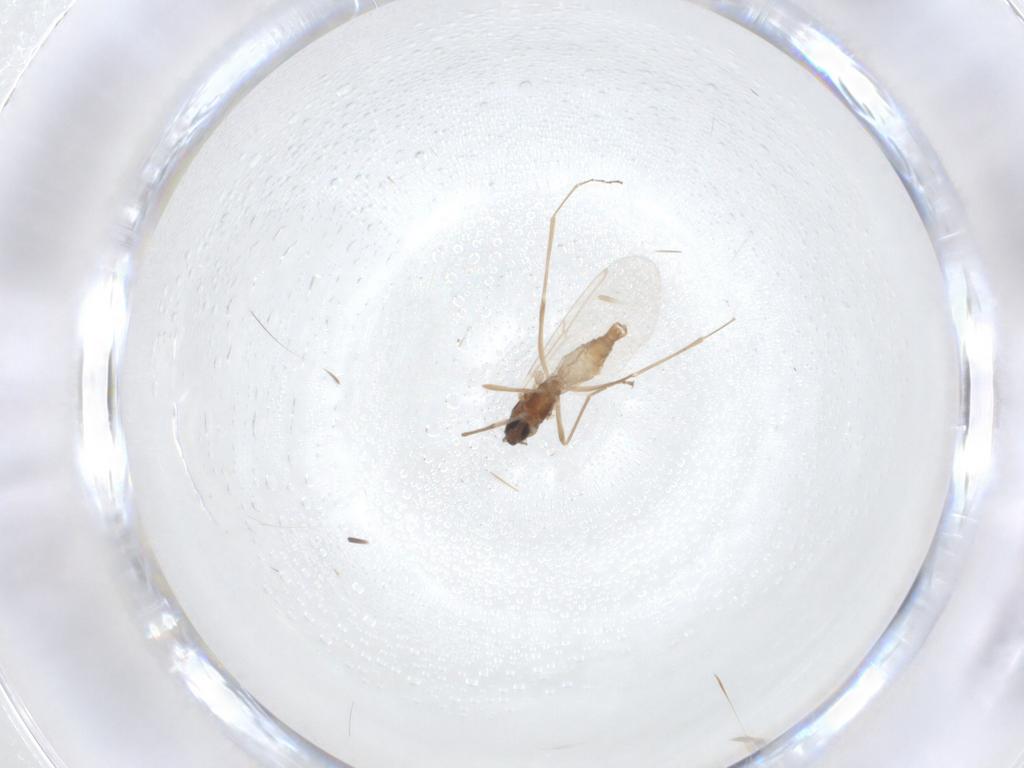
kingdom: Animalia
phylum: Arthropoda
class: Insecta
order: Diptera
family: Cecidomyiidae
